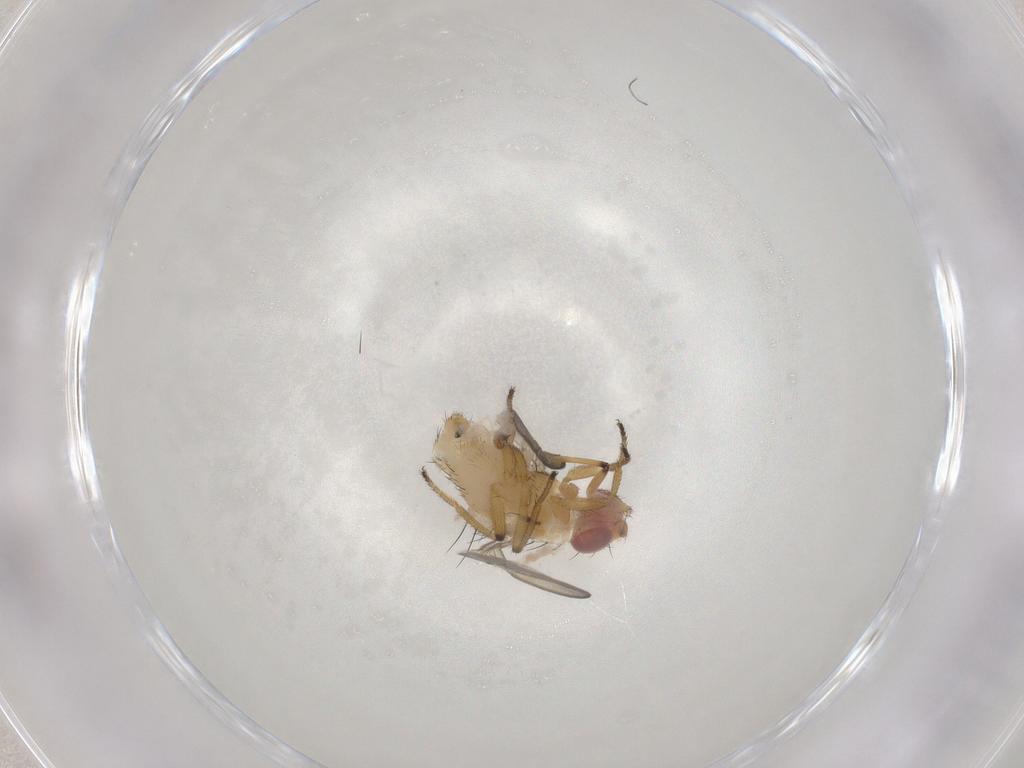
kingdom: Animalia
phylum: Arthropoda
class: Insecta
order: Diptera
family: Milichiidae
